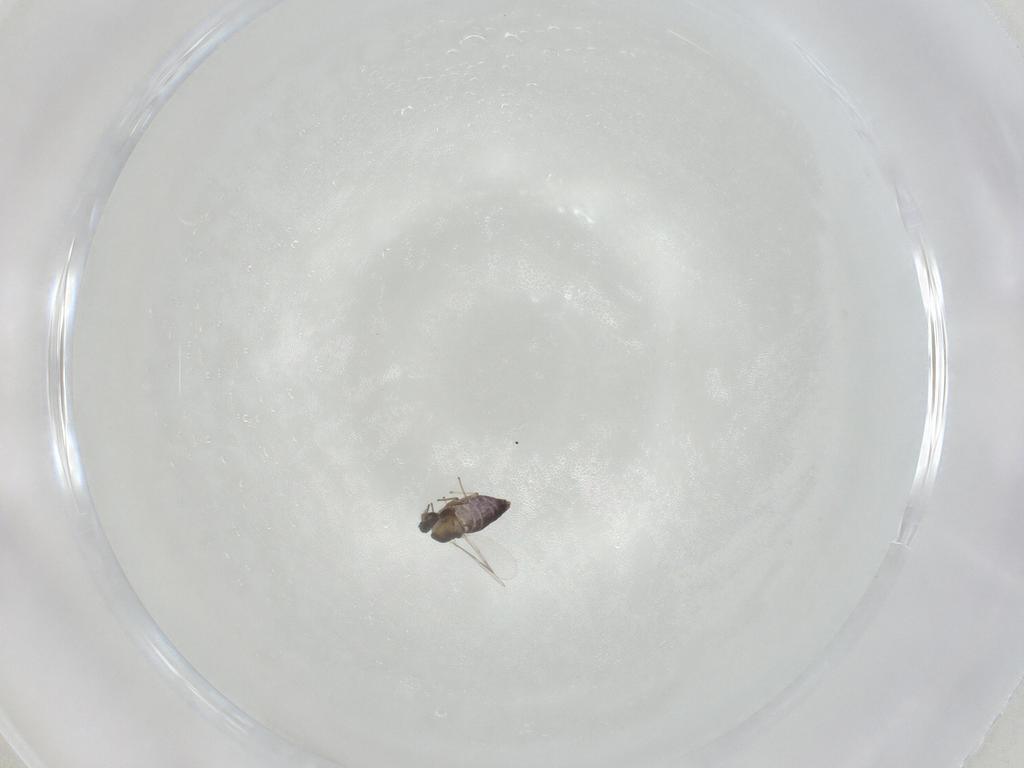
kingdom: Animalia
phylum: Arthropoda
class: Insecta
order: Diptera
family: Chironomidae
